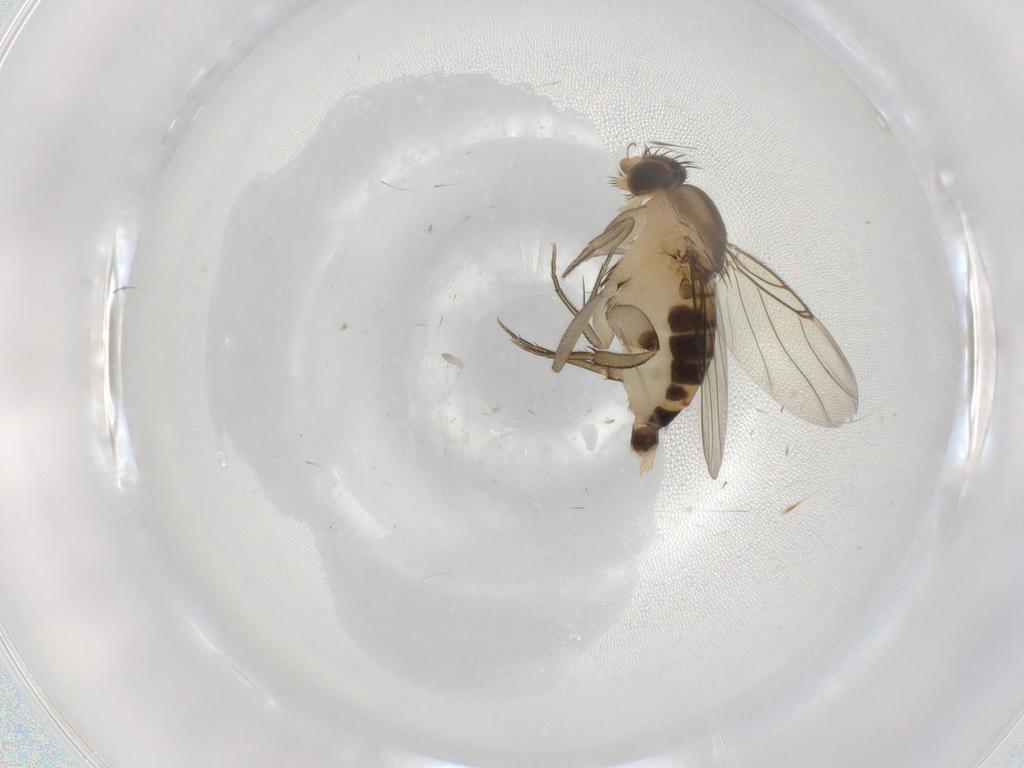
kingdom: Animalia
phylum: Arthropoda
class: Insecta
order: Diptera
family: Phoridae
